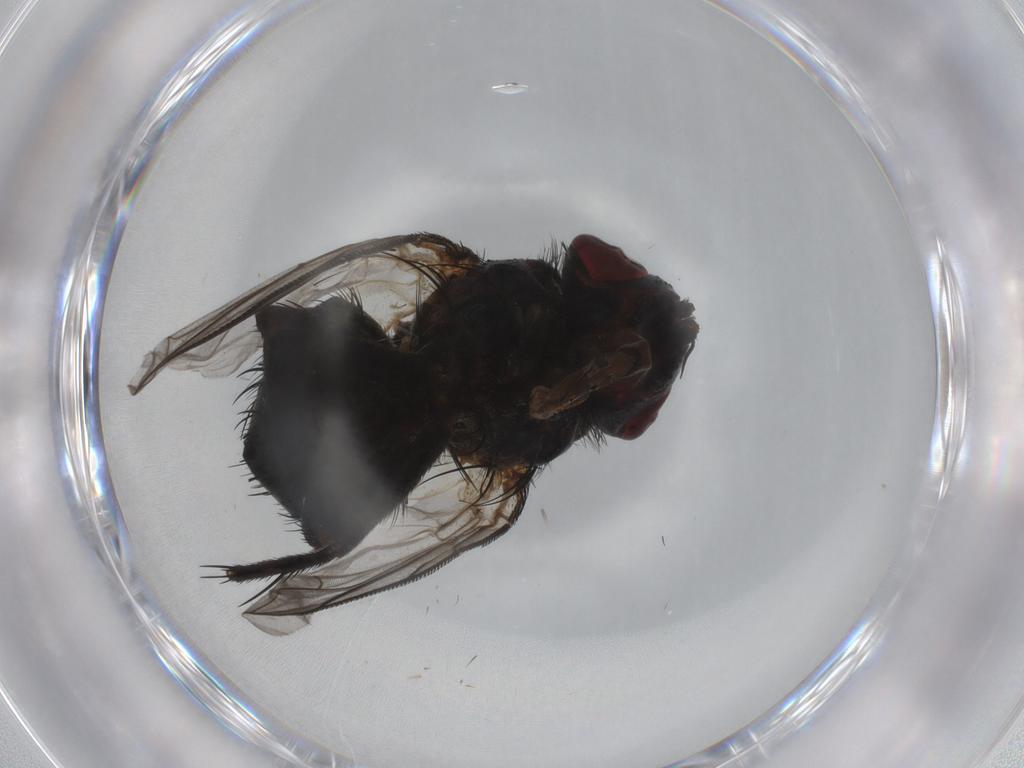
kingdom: Animalia
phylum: Arthropoda
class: Insecta
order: Diptera
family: Tachinidae
